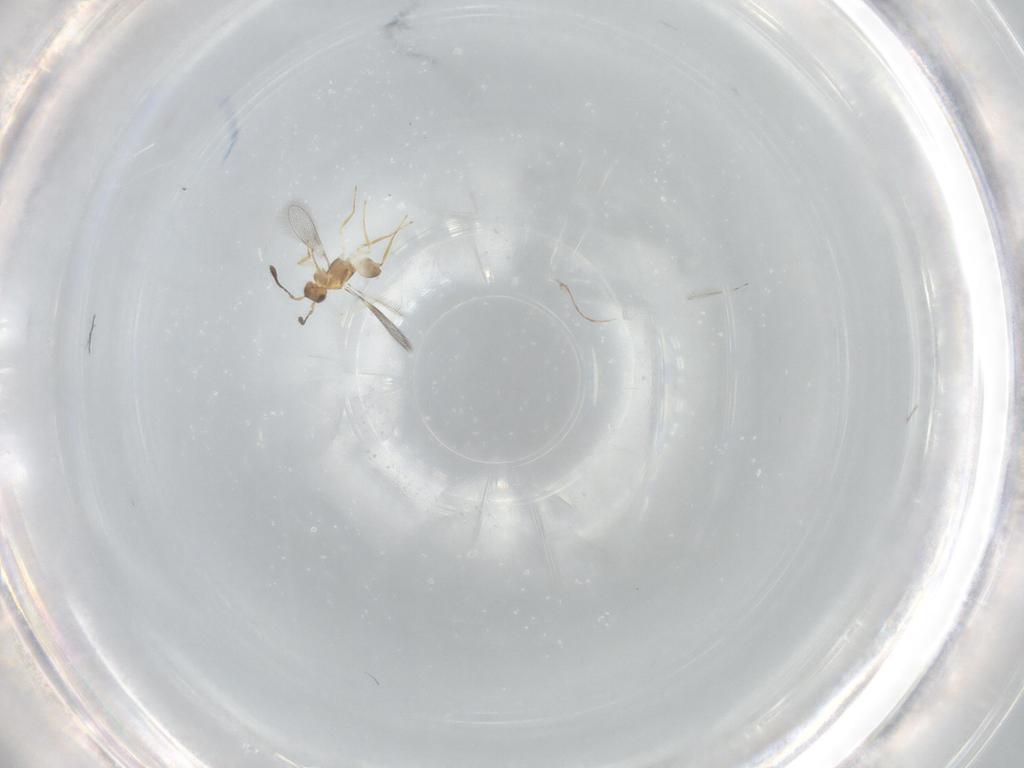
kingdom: Animalia
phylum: Arthropoda
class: Insecta
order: Hymenoptera
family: Mymaridae
